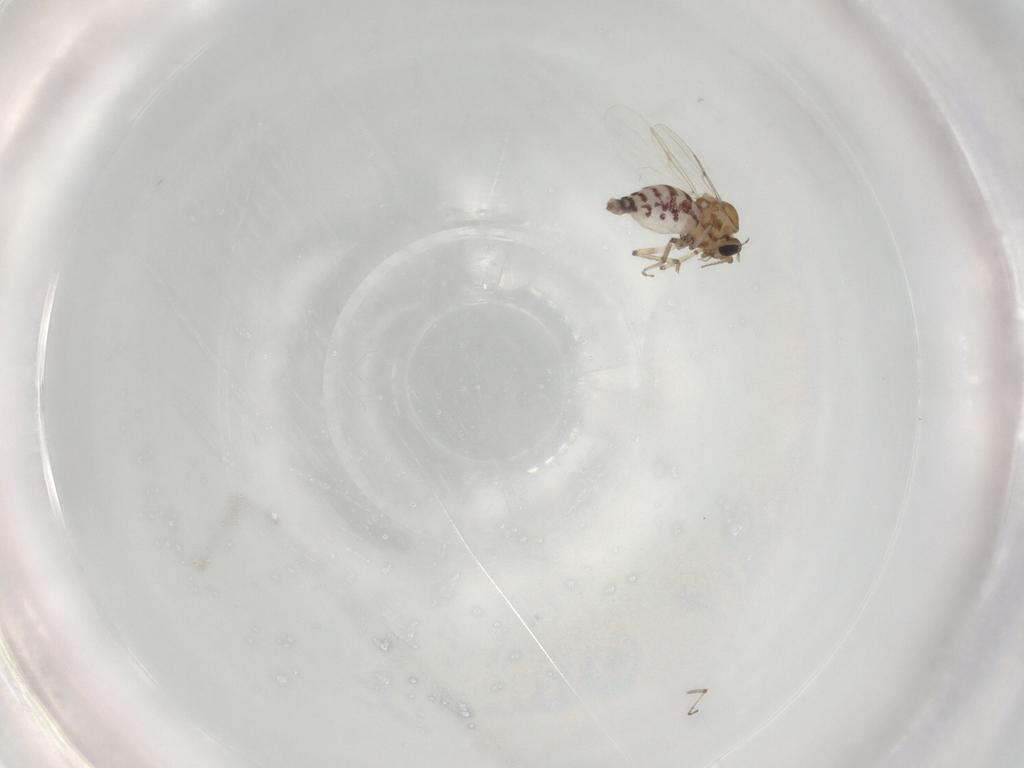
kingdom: Animalia
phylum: Arthropoda
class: Insecta
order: Diptera
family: Ceratopogonidae
